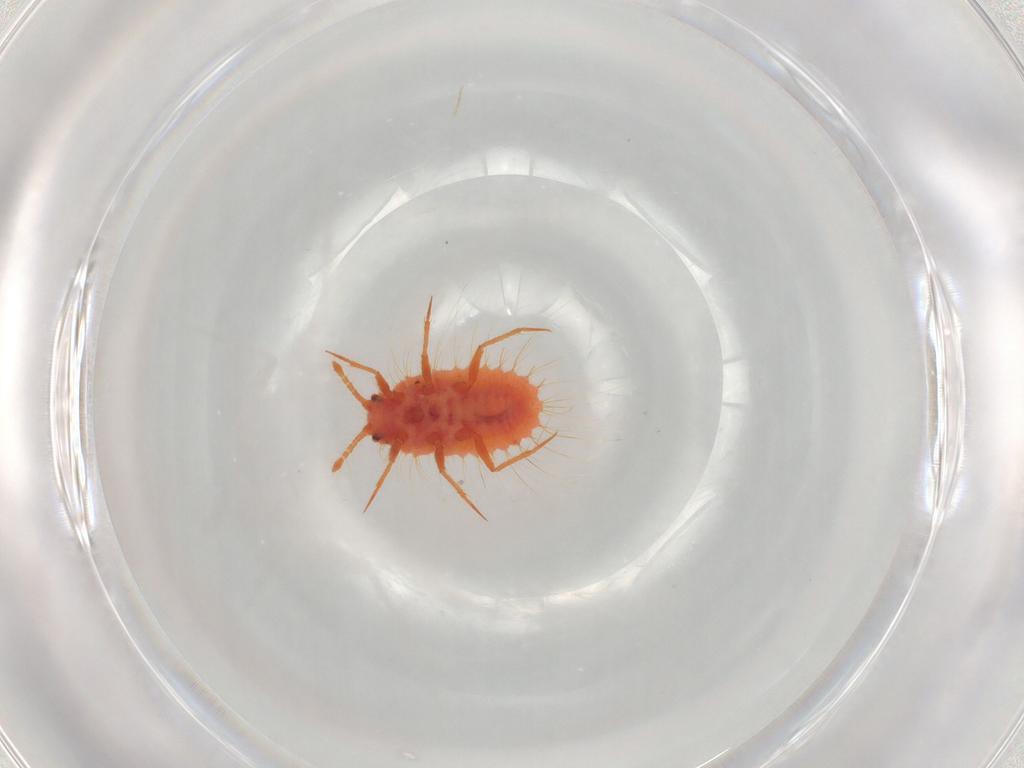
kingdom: Animalia
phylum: Arthropoda
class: Insecta
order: Hemiptera
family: Coccoidea_incertae_sedis
